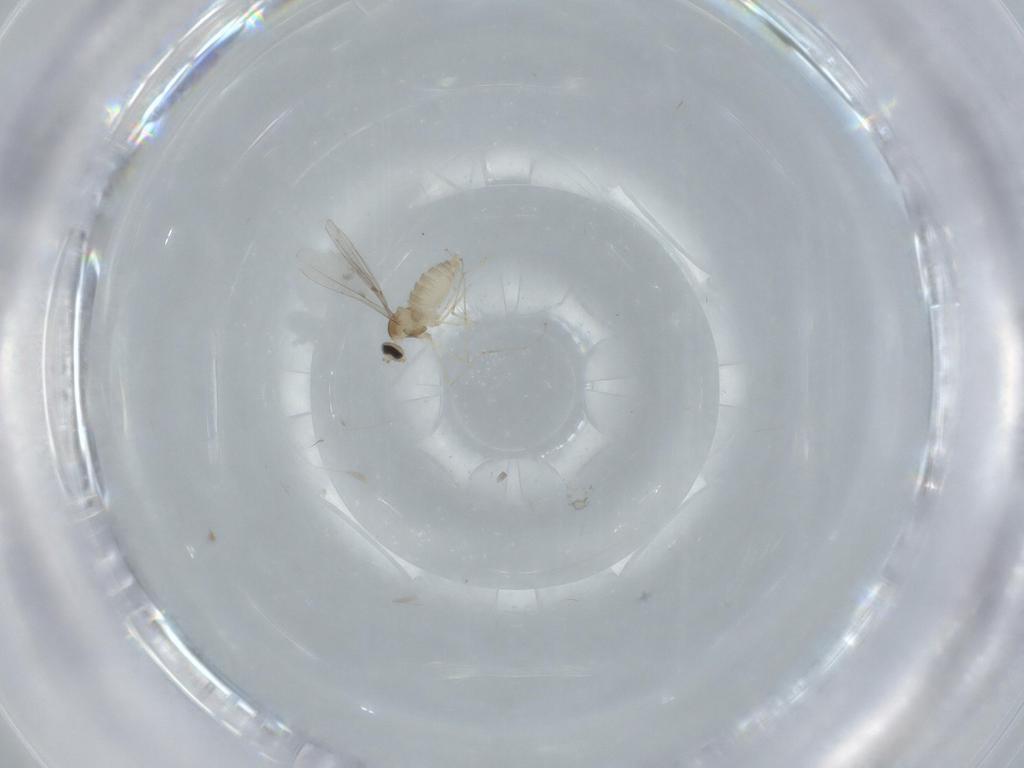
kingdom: Animalia
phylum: Arthropoda
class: Insecta
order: Diptera
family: Cecidomyiidae
